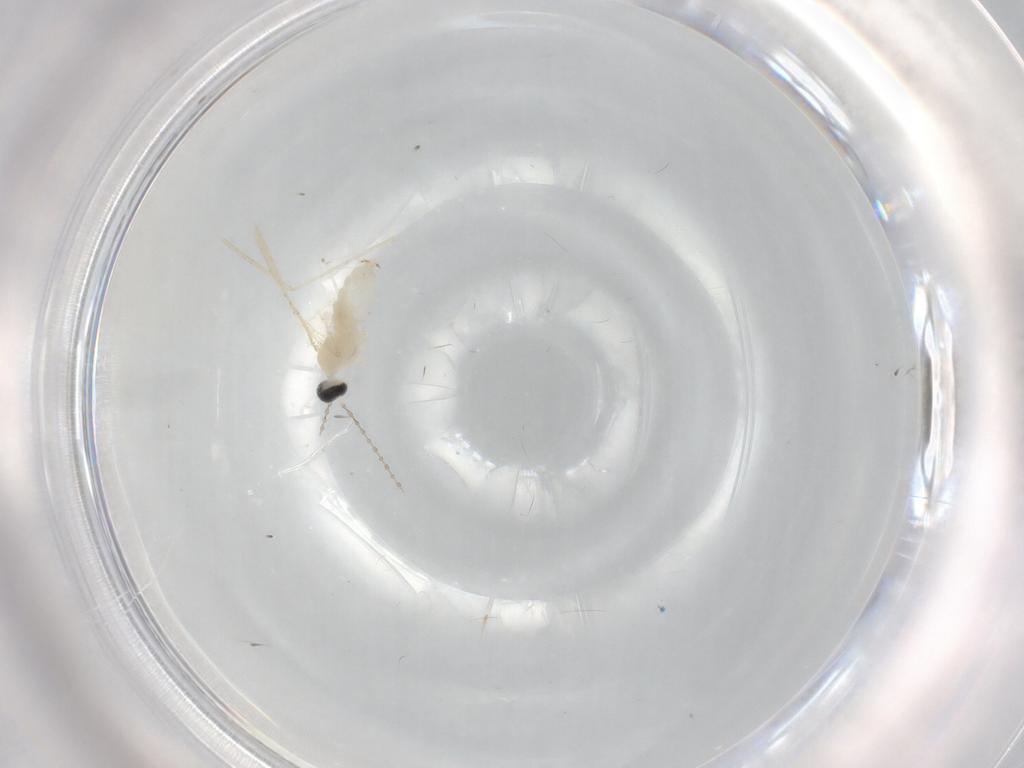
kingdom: Animalia
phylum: Arthropoda
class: Insecta
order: Diptera
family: Cecidomyiidae
